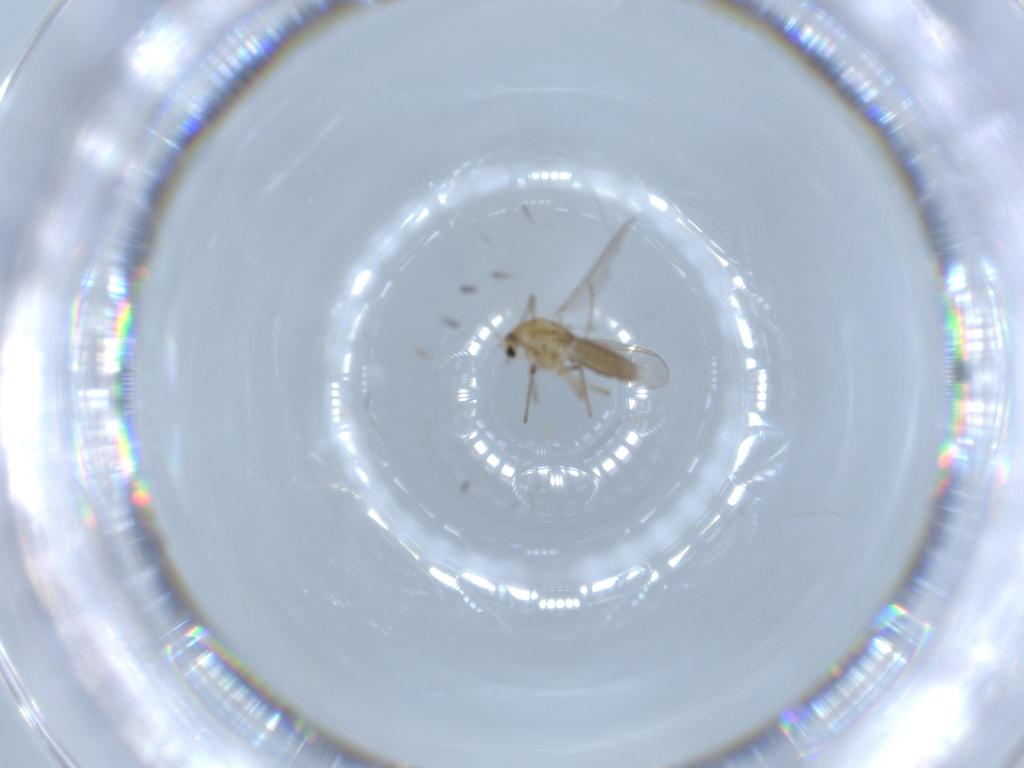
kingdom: Animalia
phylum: Arthropoda
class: Insecta
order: Diptera
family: Chironomidae
